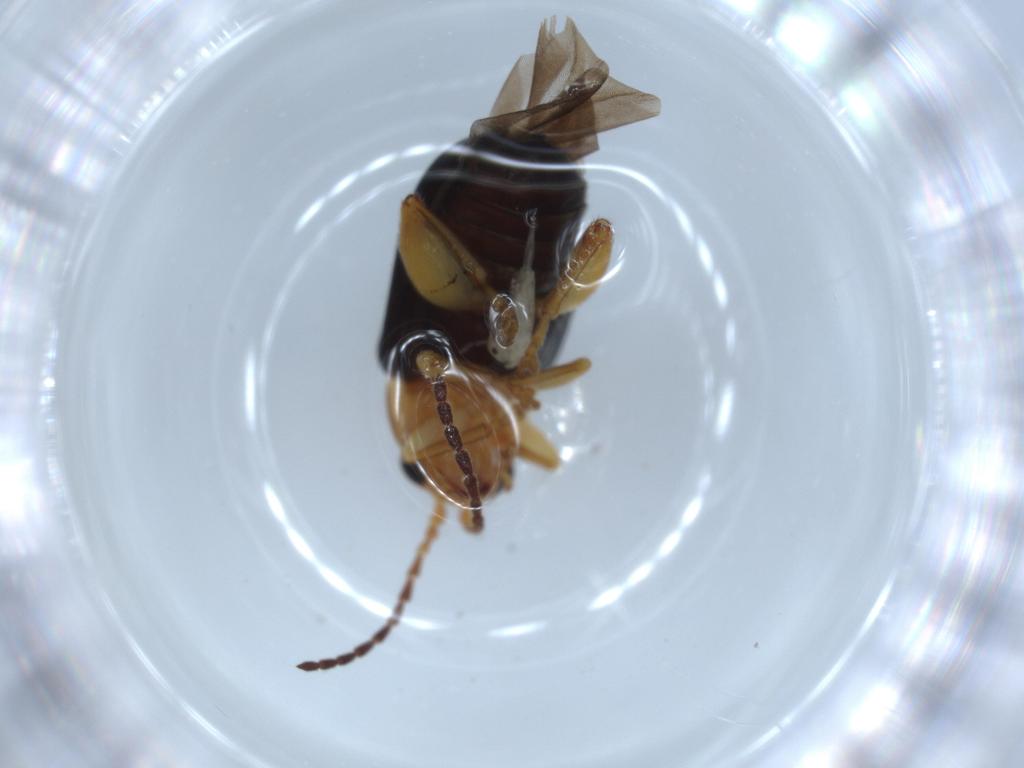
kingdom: Animalia
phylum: Arthropoda
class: Insecta
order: Coleoptera
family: Chrysomelidae
